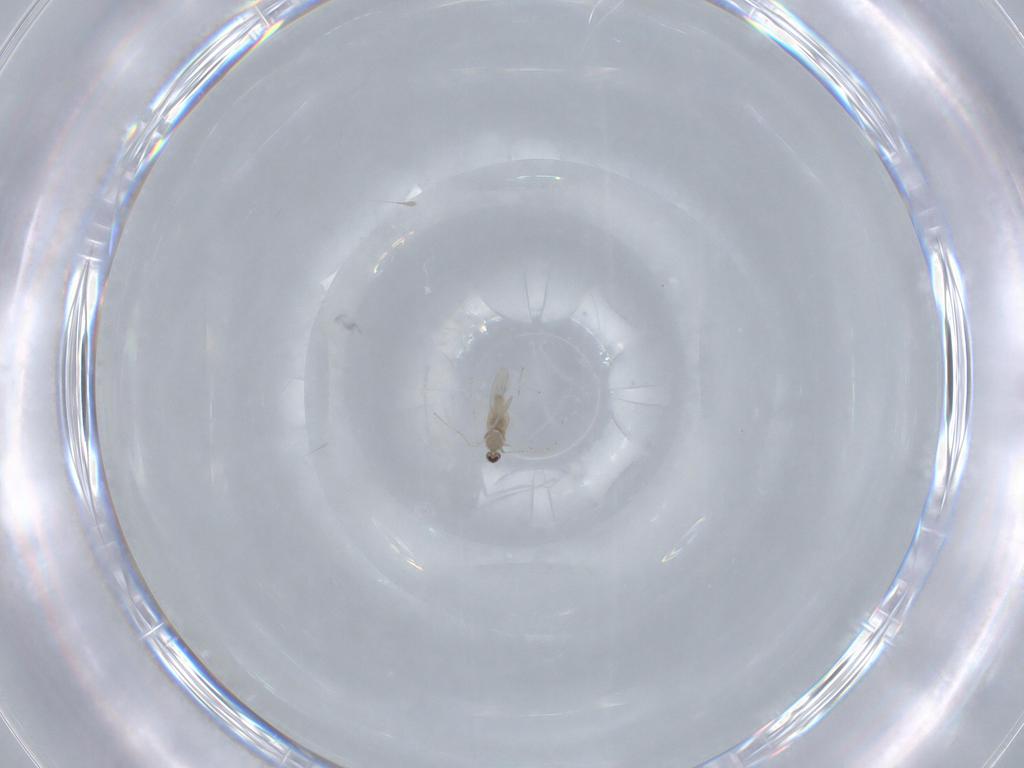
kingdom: Animalia
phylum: Arthropoda
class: Insecta
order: Diptera
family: Cecidomyiidae
